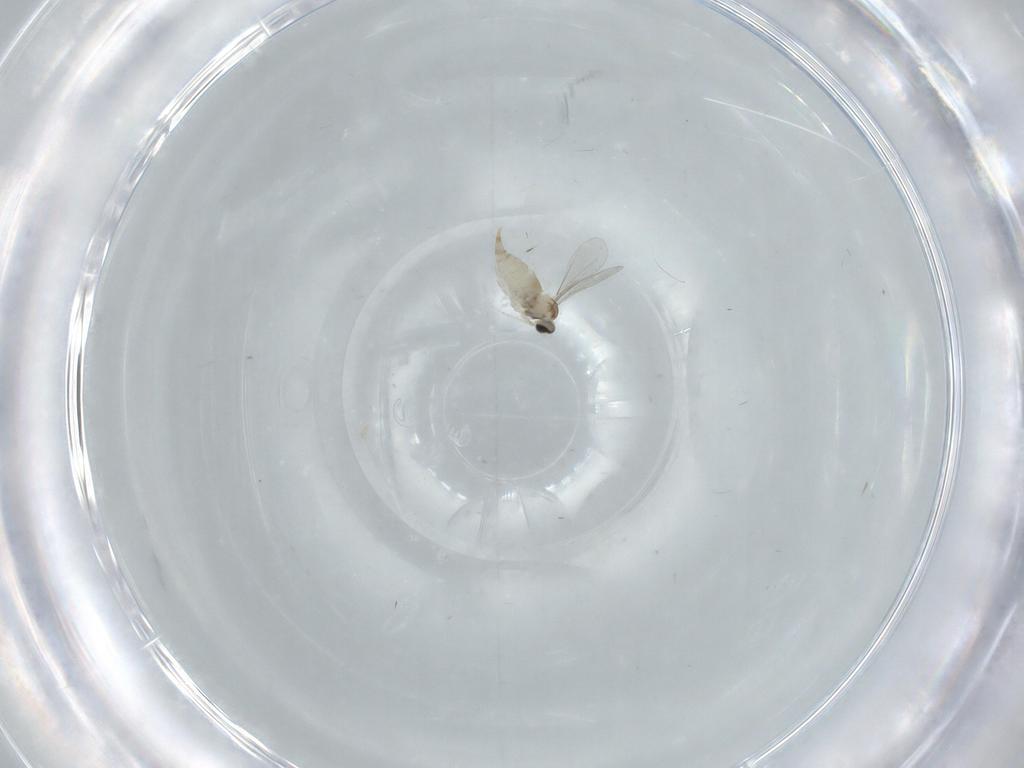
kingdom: Animalia
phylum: Arthropoda
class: Insecta
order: Diptera
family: Cecidomyiidae
